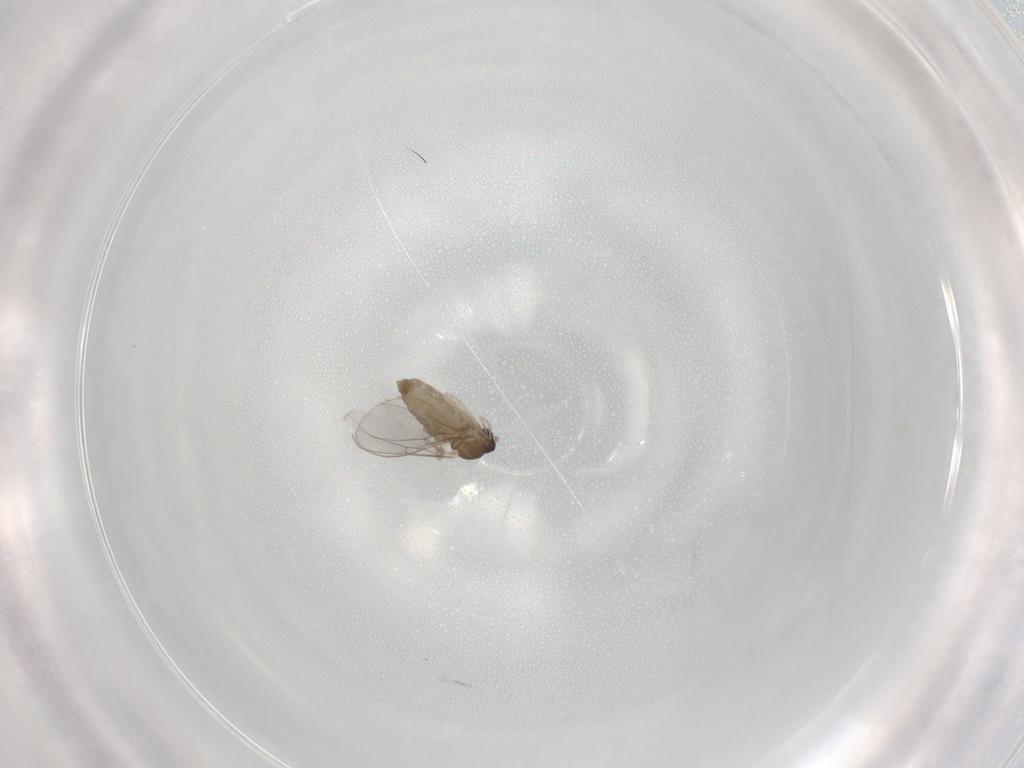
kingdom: Animalia
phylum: Arthropoda
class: Insecta
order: Diptera
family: Cecidomyiidae
